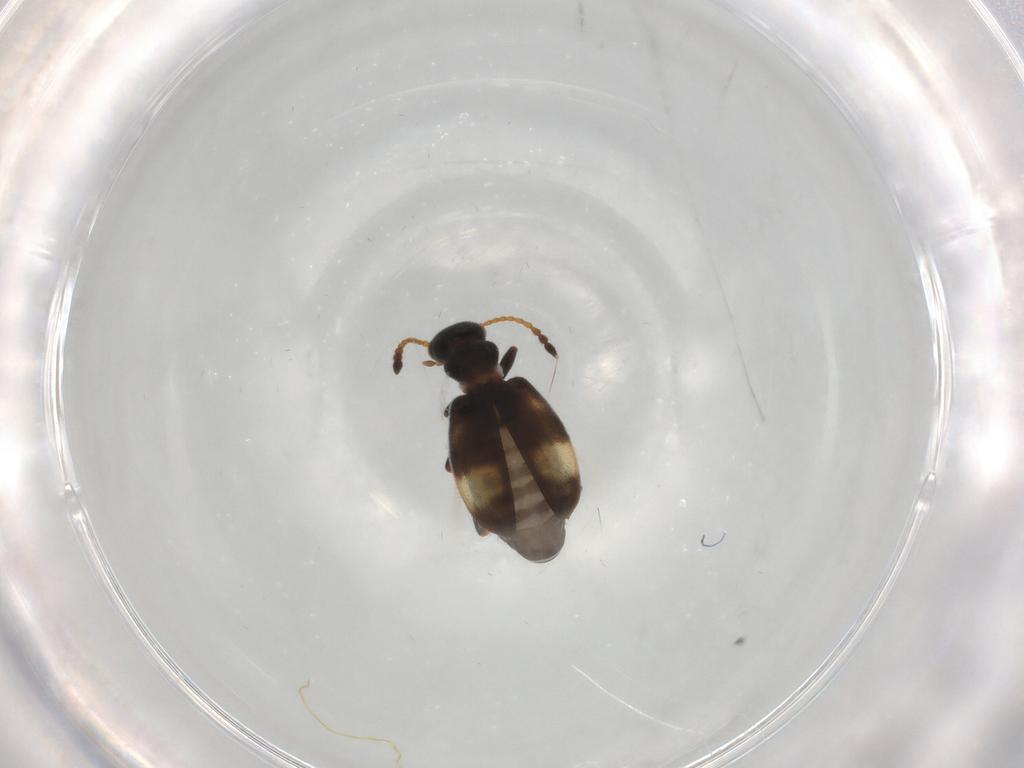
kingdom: Animalia
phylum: Arthropoda
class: Insecta
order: Coleoptera
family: Anthicidae
